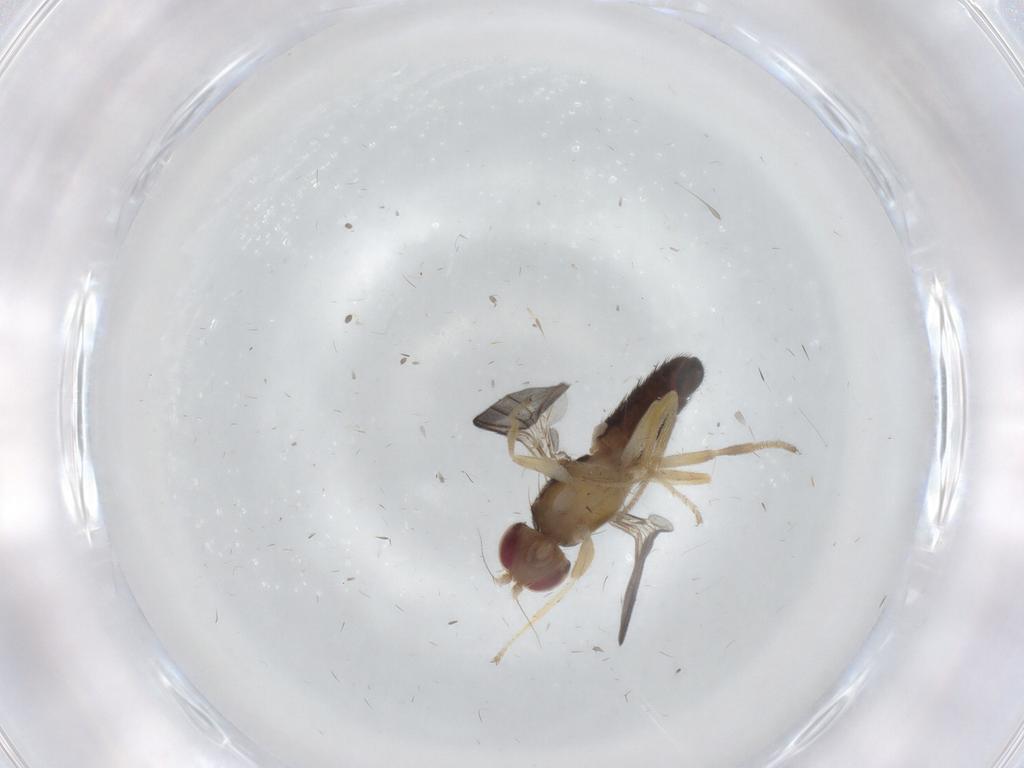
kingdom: Animalia
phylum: Arthropoda
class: Insecta
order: Diptera
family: Clusiidae
